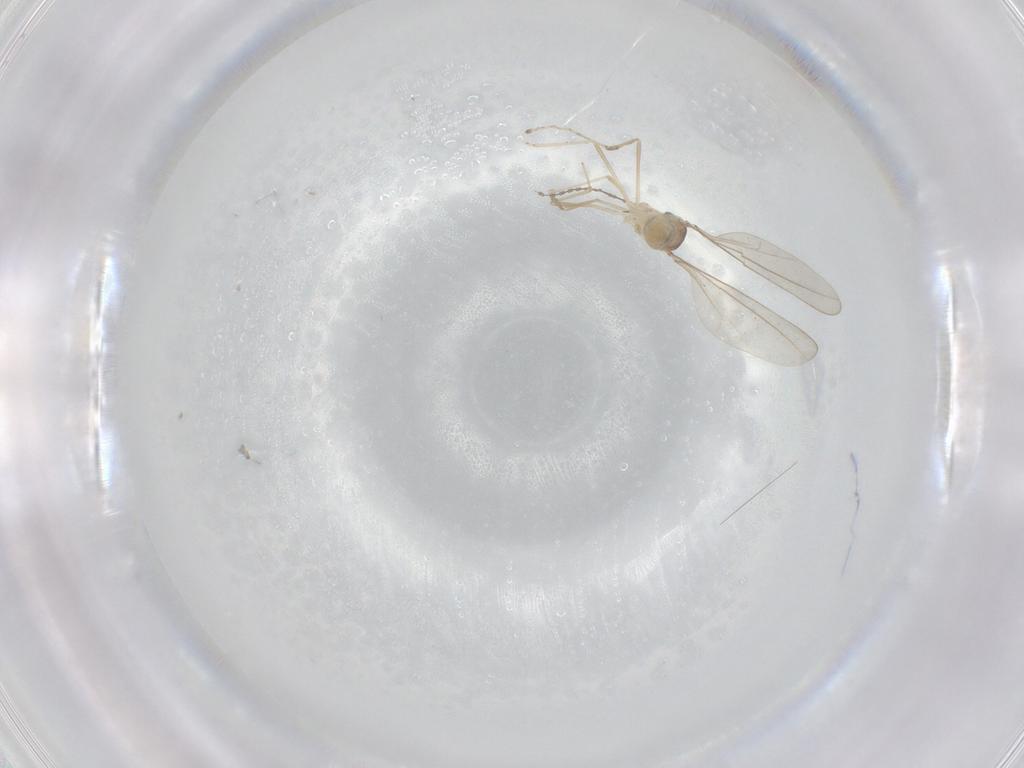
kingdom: Animalia
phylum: Arthropoda
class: Insecta
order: Diptera
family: Cecidomyiidae
